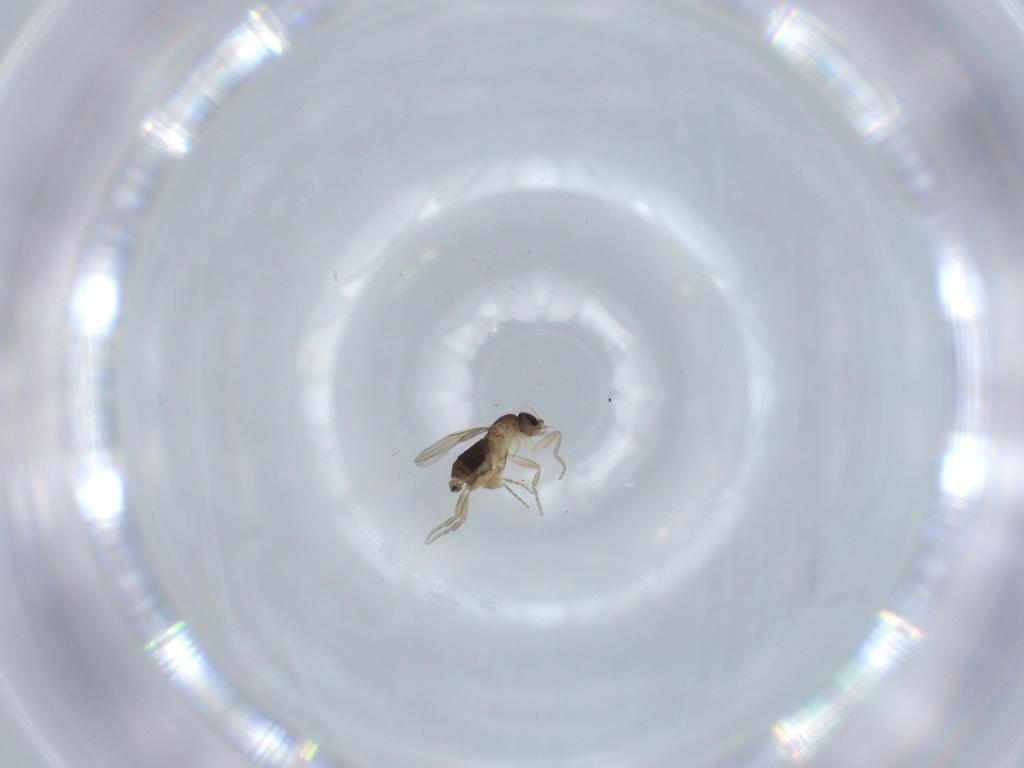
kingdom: Animalia
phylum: Arthropoda
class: Insecta
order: Diptera
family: Phoridae
